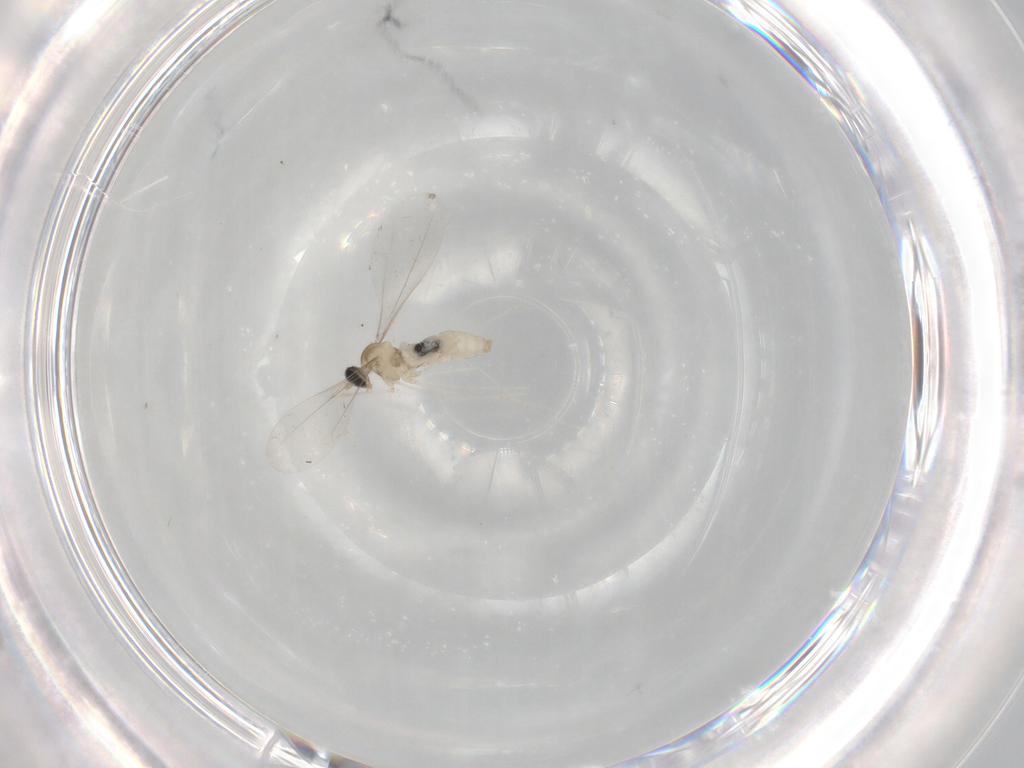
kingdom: Animalia
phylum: Arthropoda
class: Insecta
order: Diptera
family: Cecidomyiidae
